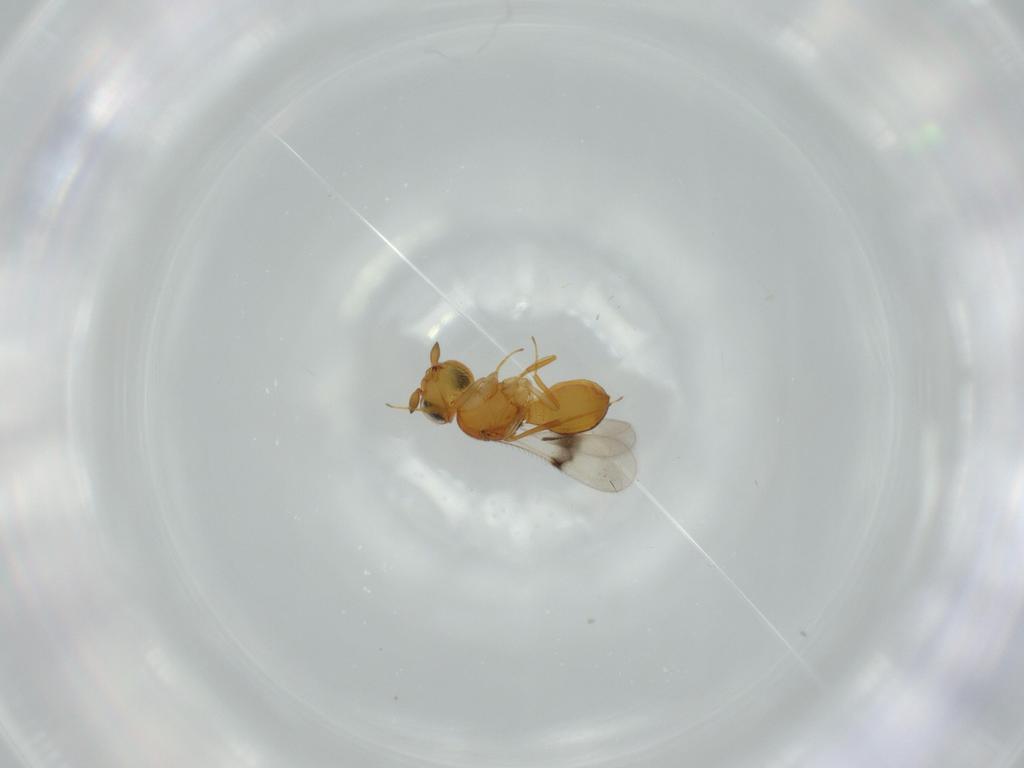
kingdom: Animalia
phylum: Arthropoda
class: Insecta
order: Hymenoptera
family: Scelionidae
